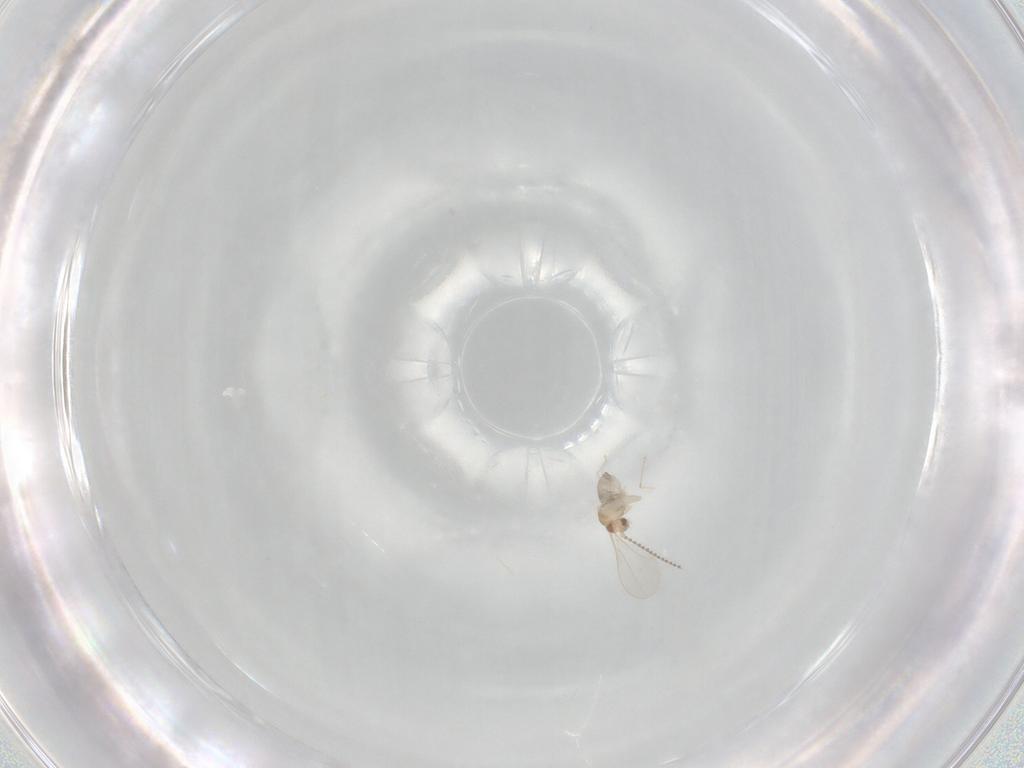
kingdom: Animalia
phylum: Arthropoda
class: Insecta
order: Diptera
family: Cecidomyiidae
